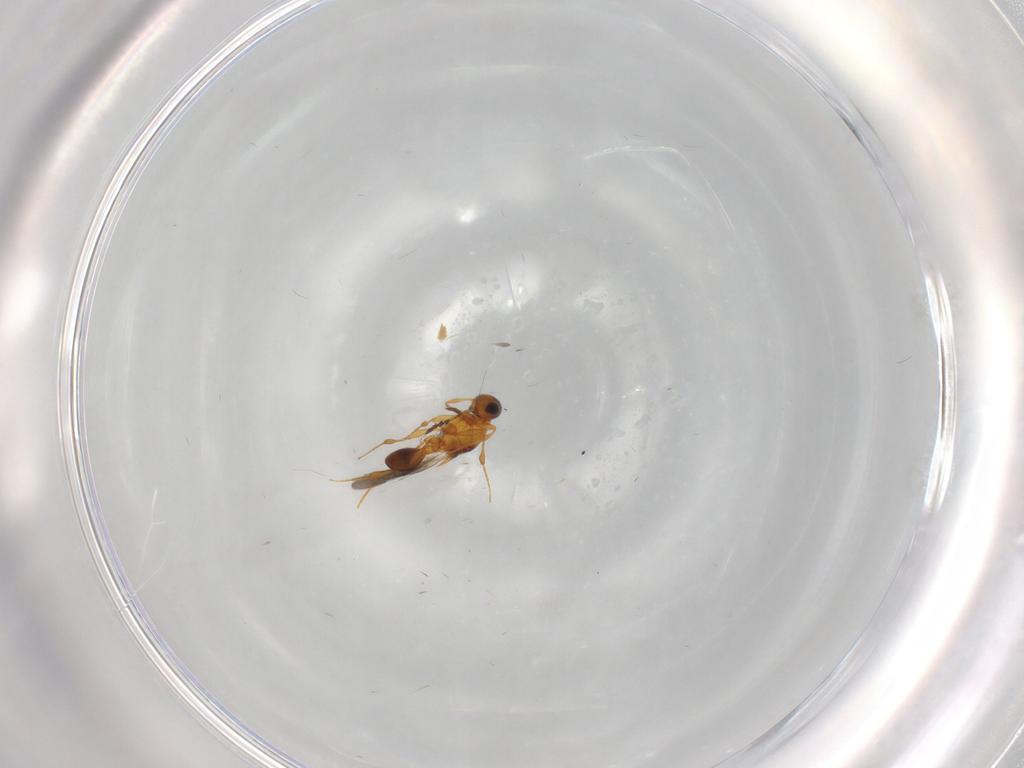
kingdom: Animalia
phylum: Arthropoda
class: Insecta
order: Hymenoptera
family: Platygastridae
